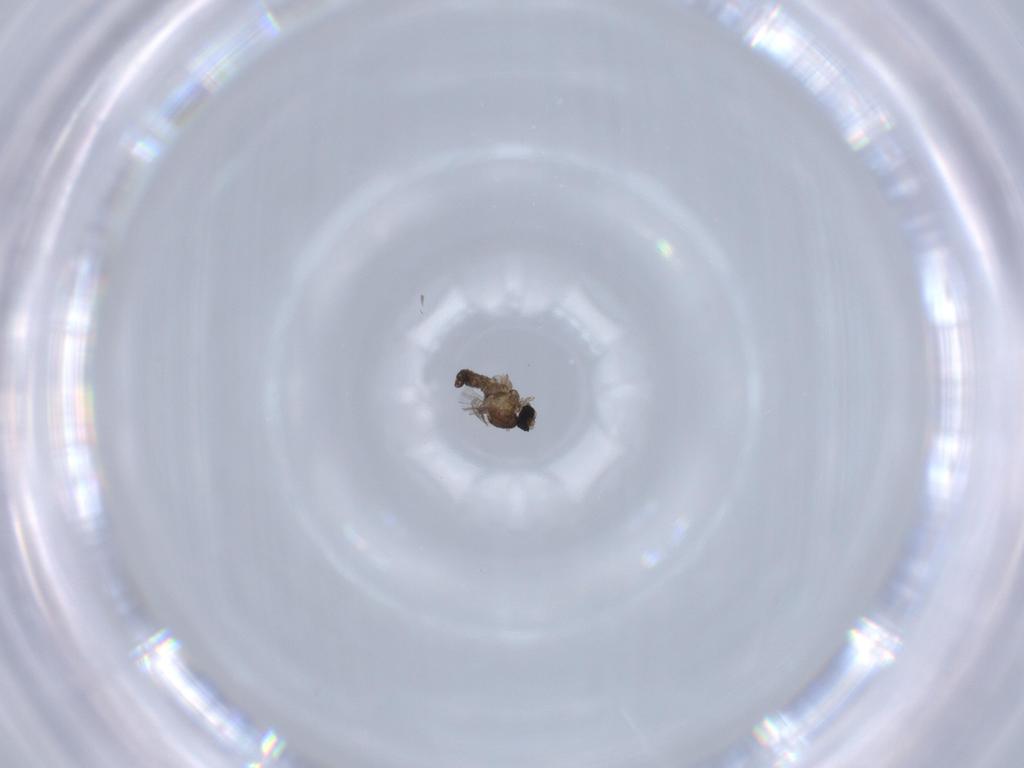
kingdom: Animalia
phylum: Arthropoda
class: Insecta
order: Diptera
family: Cecidomyiidae
